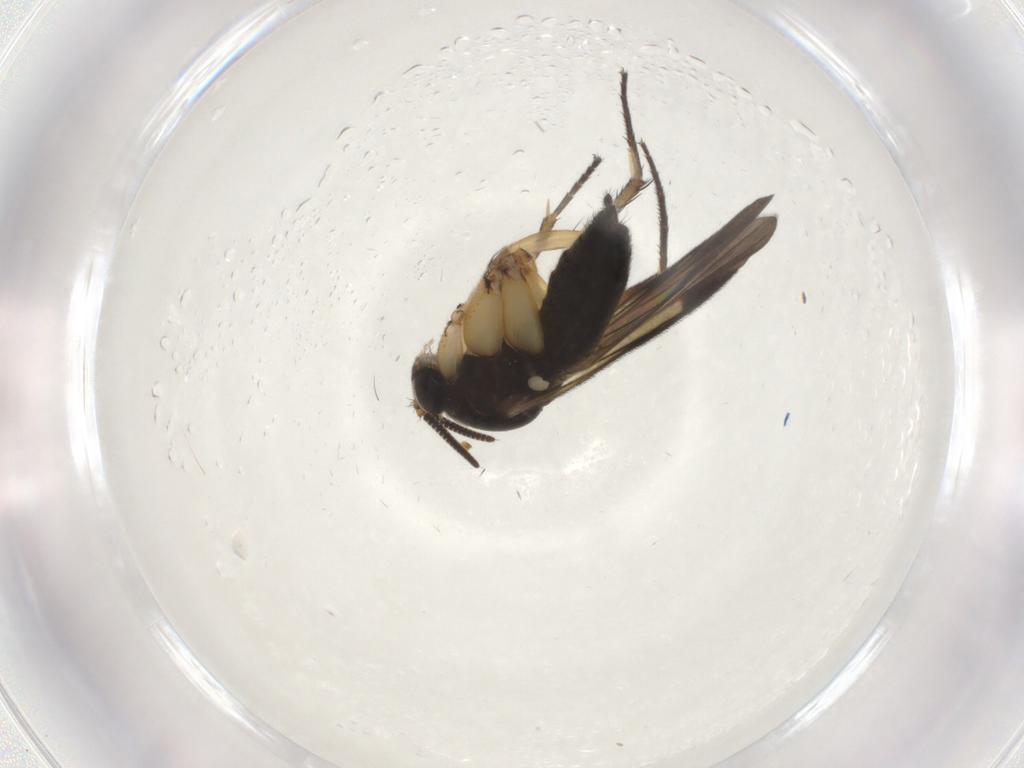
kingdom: Animalia
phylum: Arthropoda
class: Insecta
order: Diptera
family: Mycetophilidae
